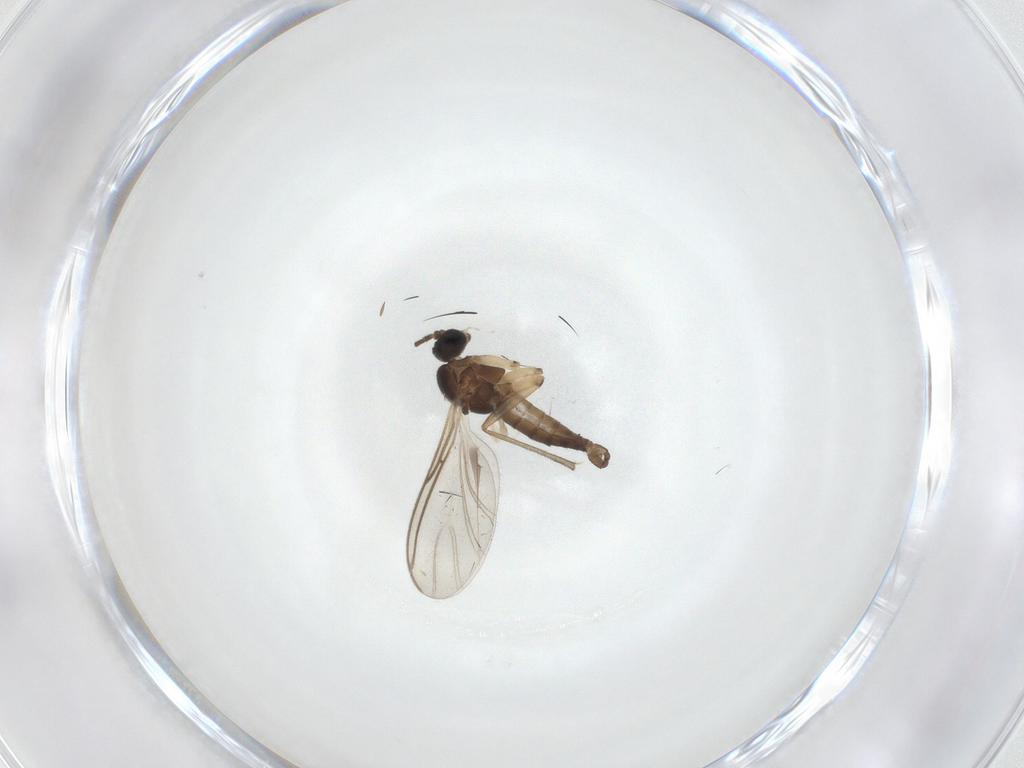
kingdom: Animalia
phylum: Arthropoda
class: Insecta
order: Diptera
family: Sciaridae
